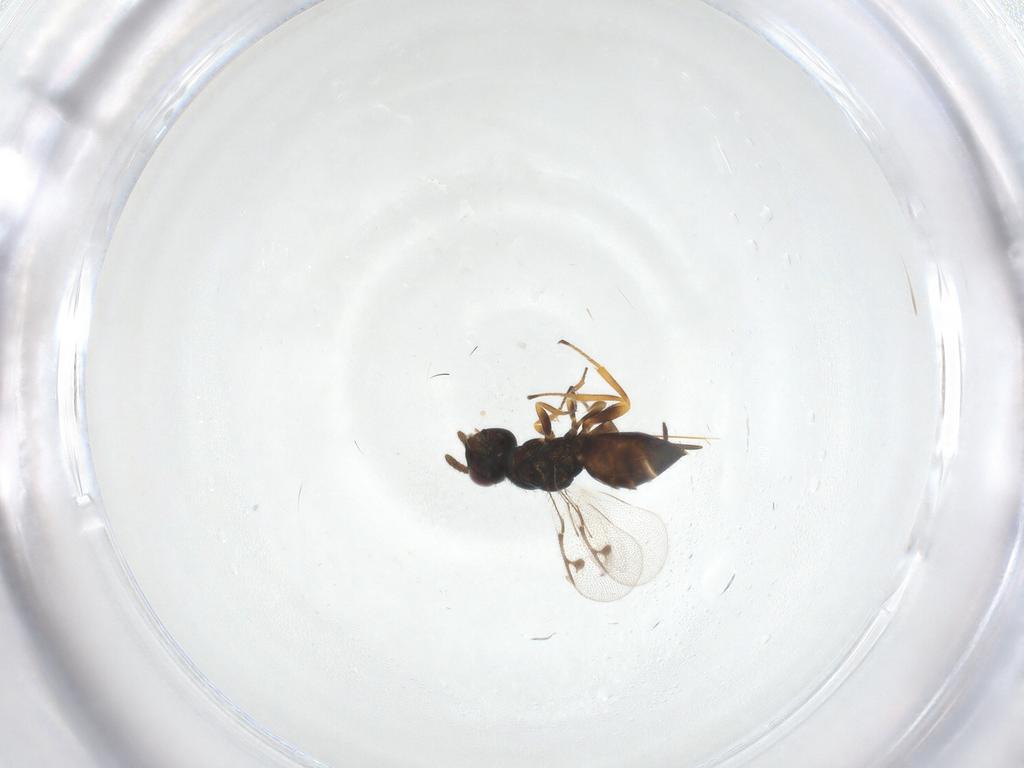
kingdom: Animalia
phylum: Arthropoda
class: Insecta
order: Hymenoptera
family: Pirenidae
